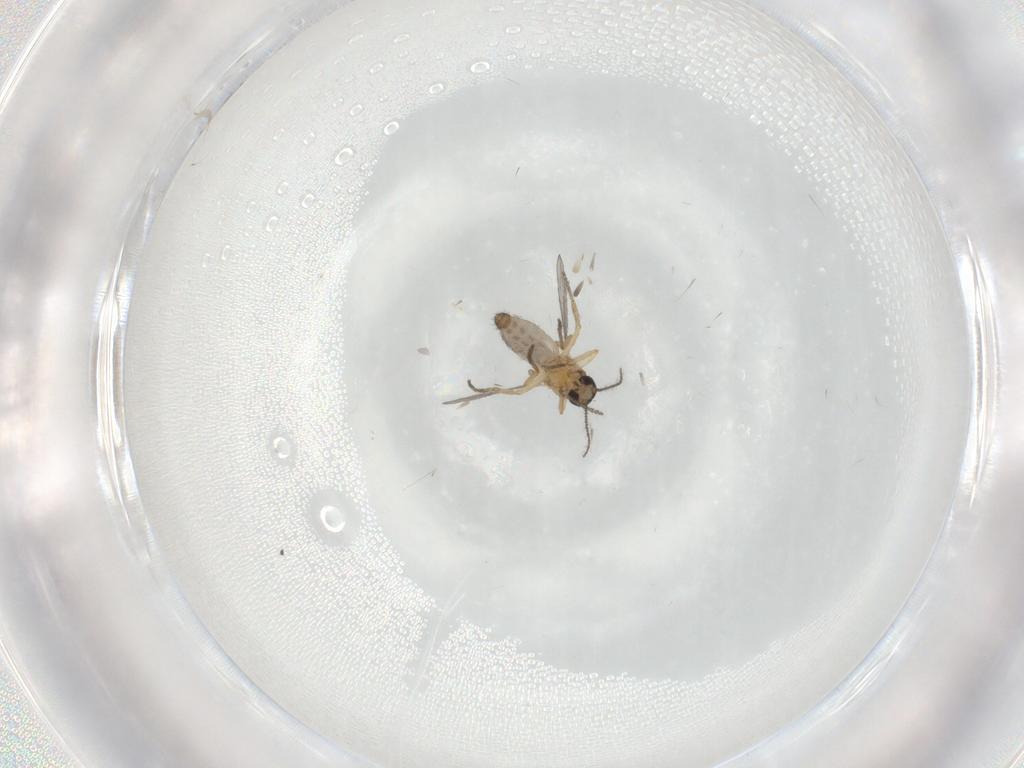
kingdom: Animalia
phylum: Arthropoda
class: Insecta
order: Diptera
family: Ceratopogonidae
